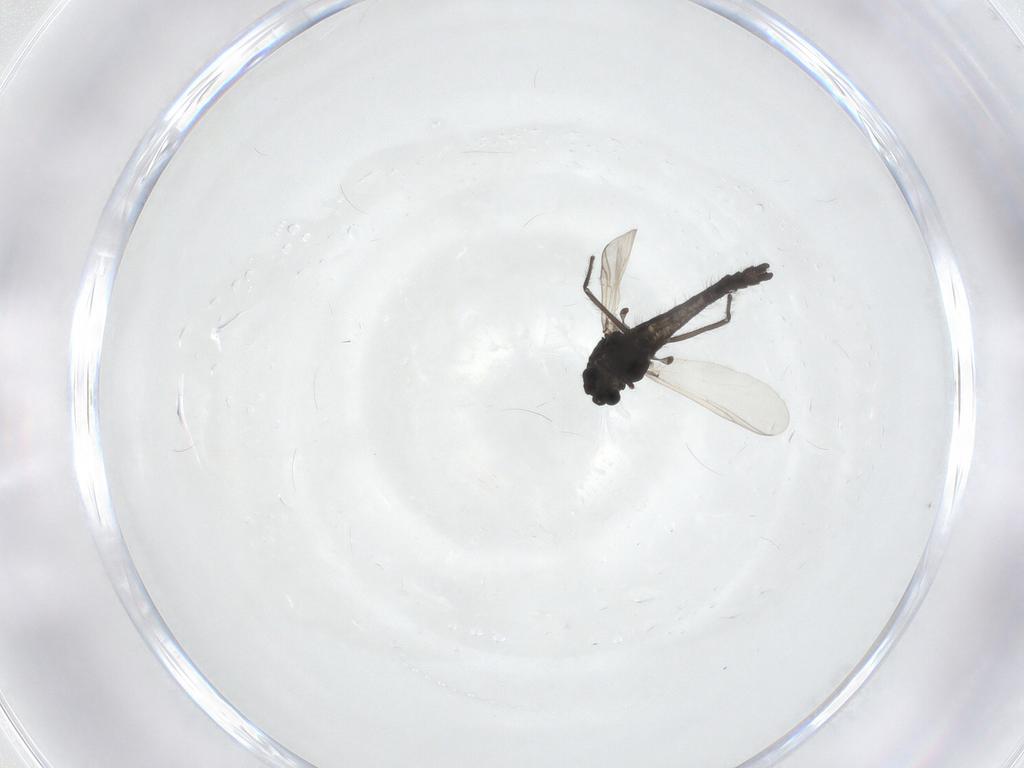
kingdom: Animalia
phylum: Arthropoda
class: Insecta
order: Diptera
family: Chironomidae
